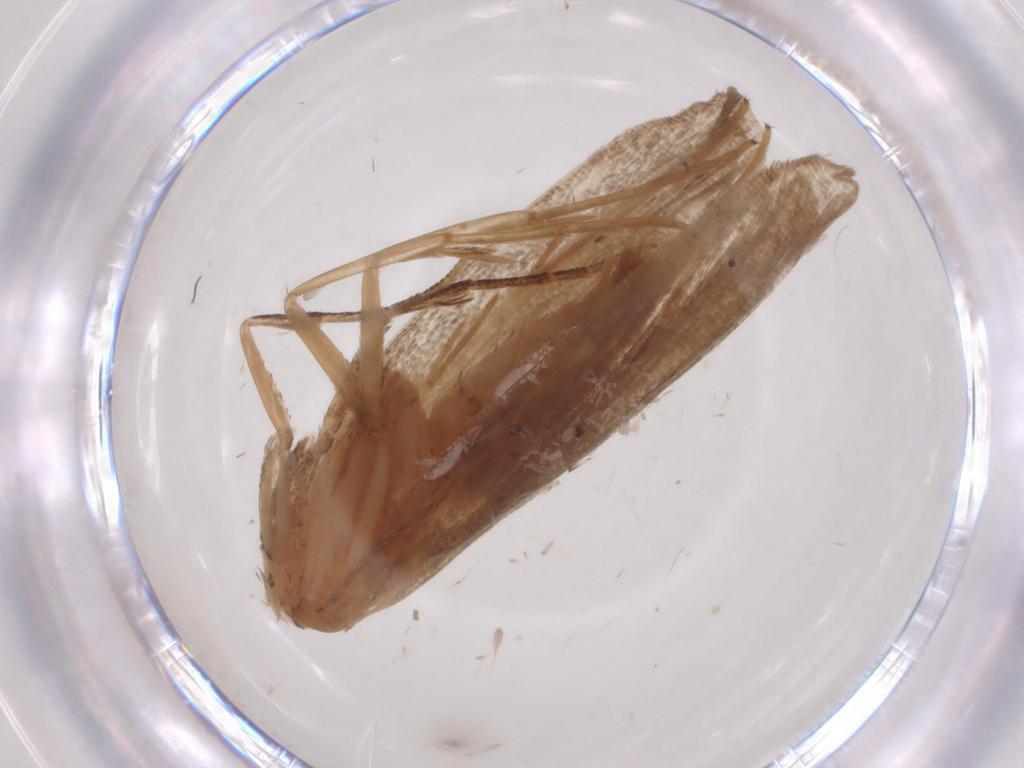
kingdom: Animalia
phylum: Arthropoda
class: Insecta
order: Lepidoptera
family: Carposinidae
